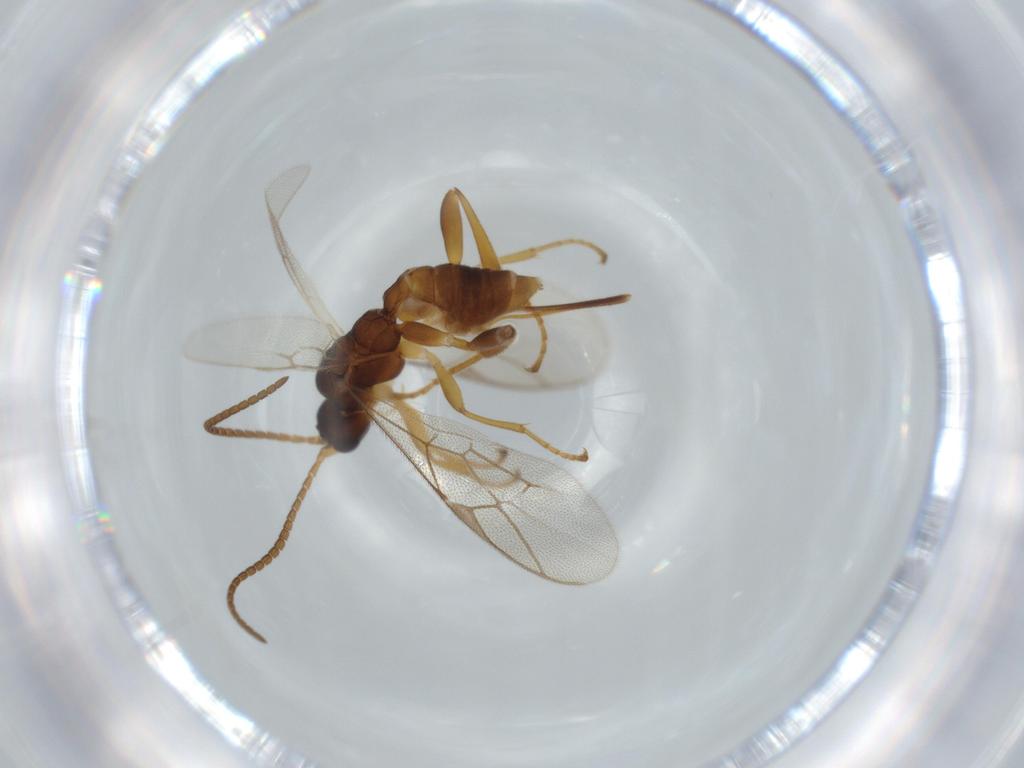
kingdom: Animalia
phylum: Arthropoda
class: Insecta
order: Hymenoptera
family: Ichneumonidae
